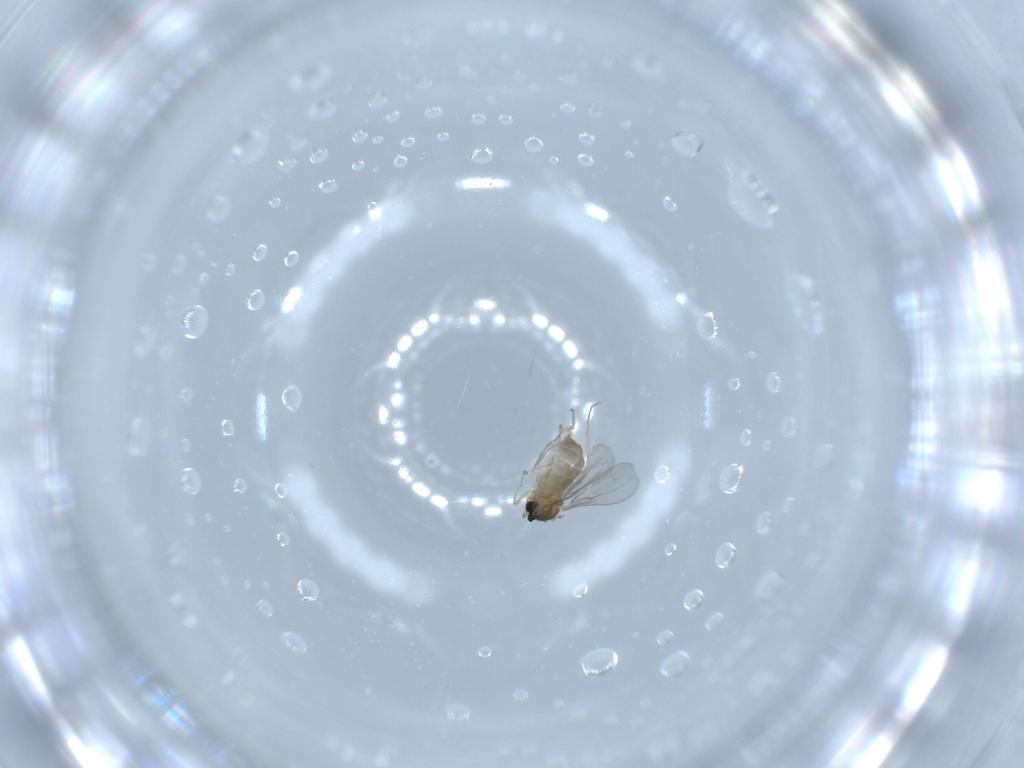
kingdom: Animalia
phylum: Arthropoda
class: Insecta
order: Diptera
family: Cecidomyiidae
